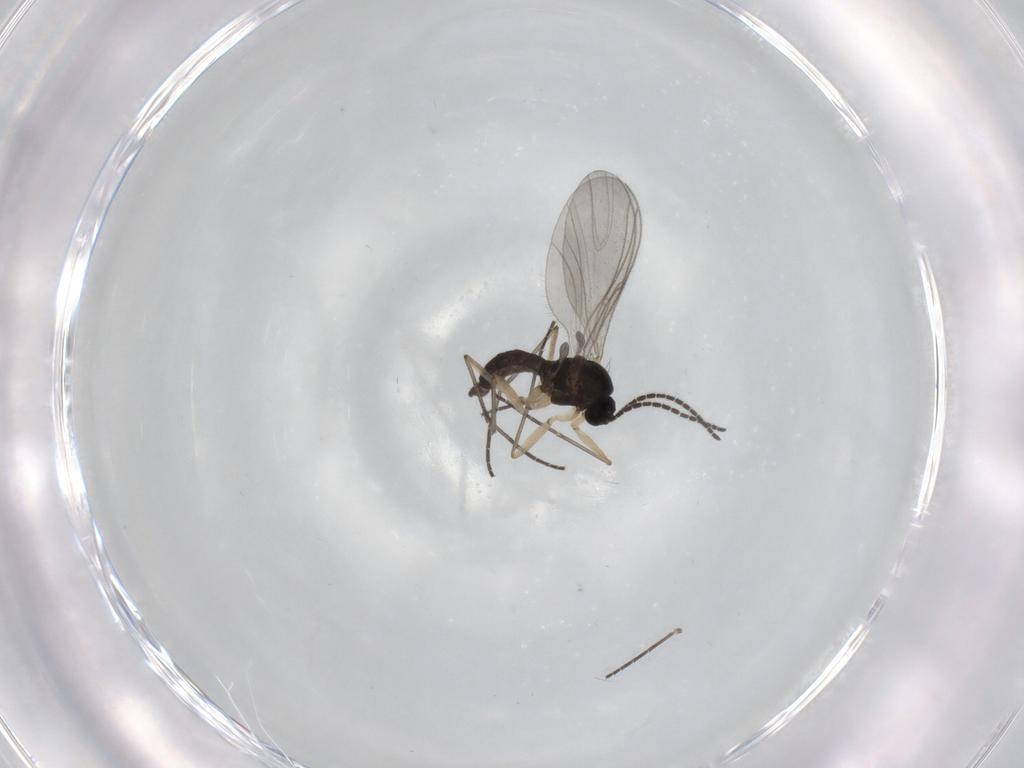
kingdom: Animalia
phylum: Arthropoda
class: Insecta
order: Diptera
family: Sciaridae
